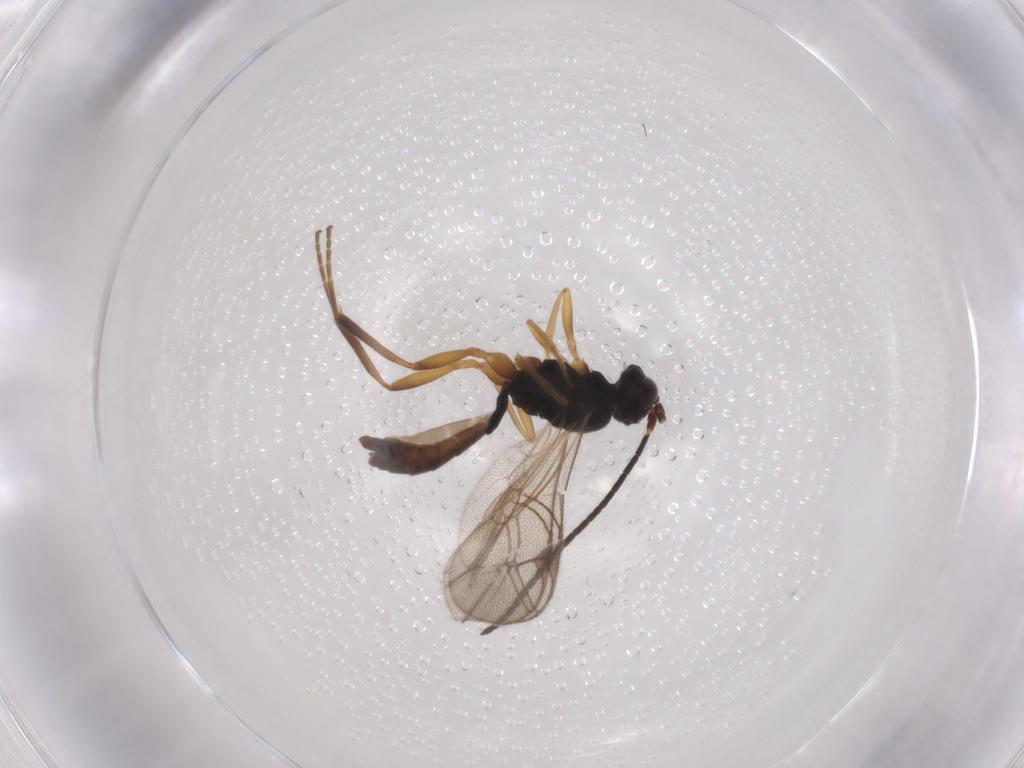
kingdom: Animalia
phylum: Arthropoda
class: Insecta
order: Hymenoptera
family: Ichneumonidae
